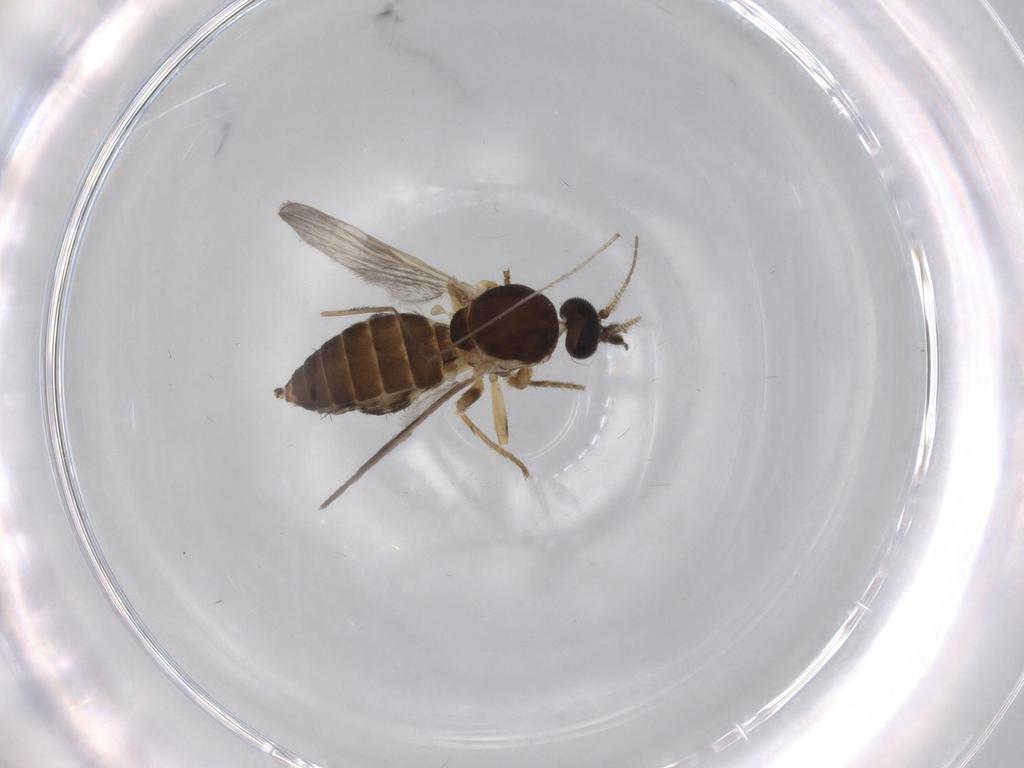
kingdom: Animalia
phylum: Arthropoda
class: Insecta
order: Diptera
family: Ceratopogonidae
